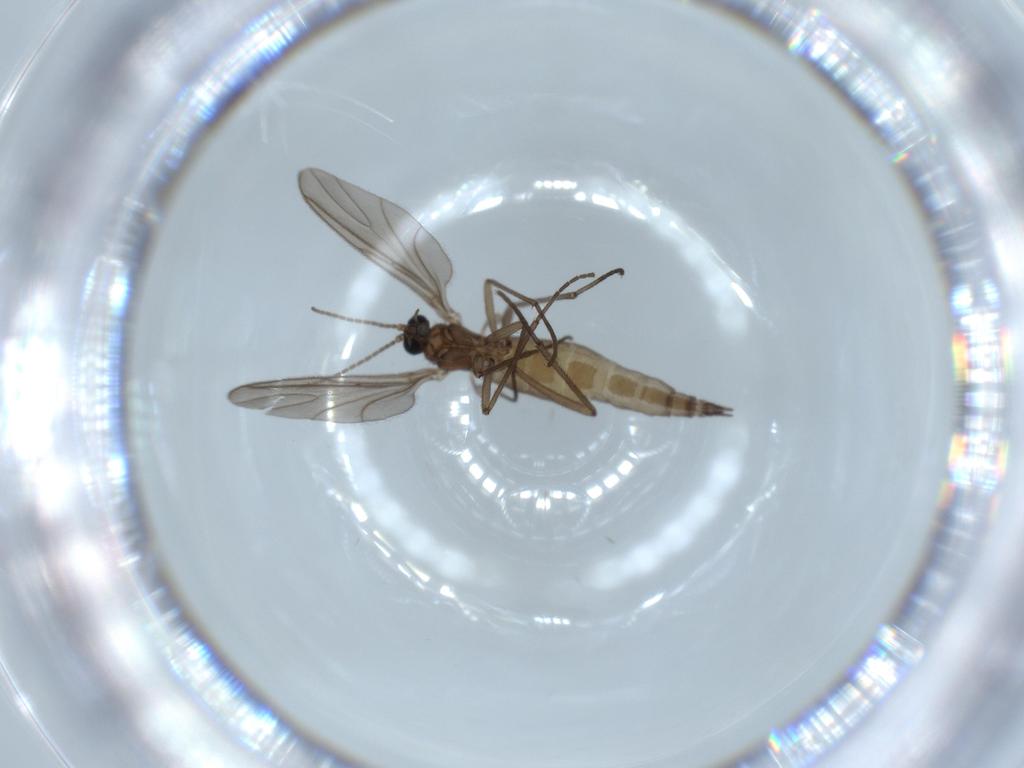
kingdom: Animalia
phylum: Arthropoda
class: Insecta
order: Diptera
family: Sciaridae
